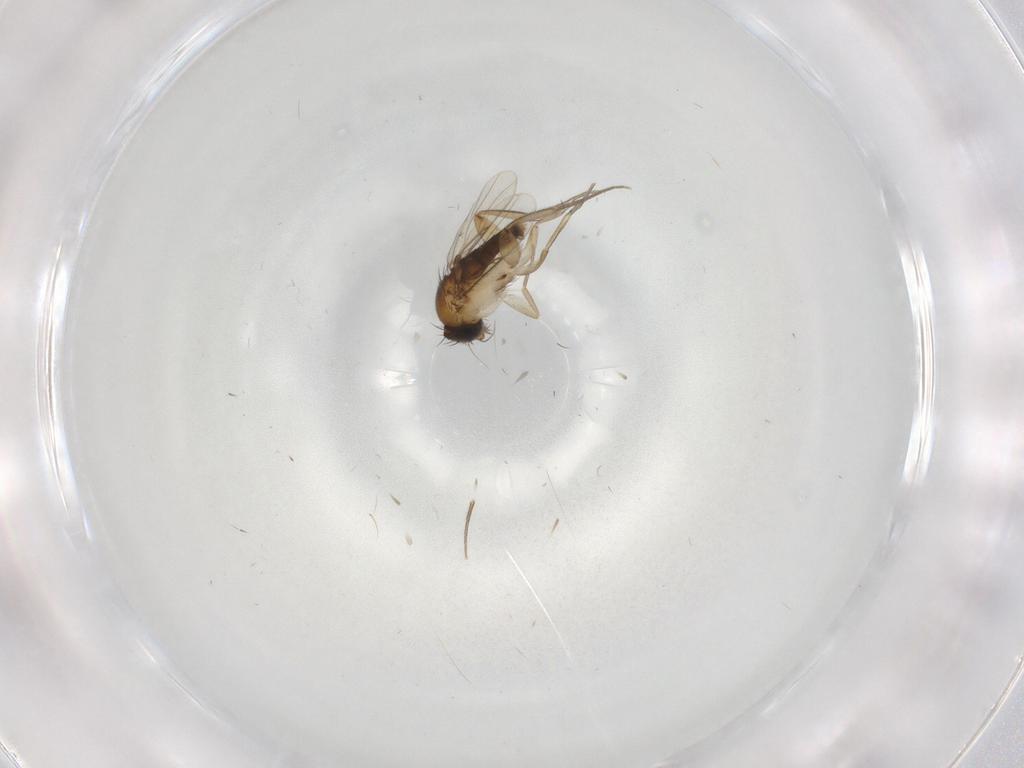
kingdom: Animalia
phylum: Arthropoda
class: Insecta
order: Diptera
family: Phoridae
